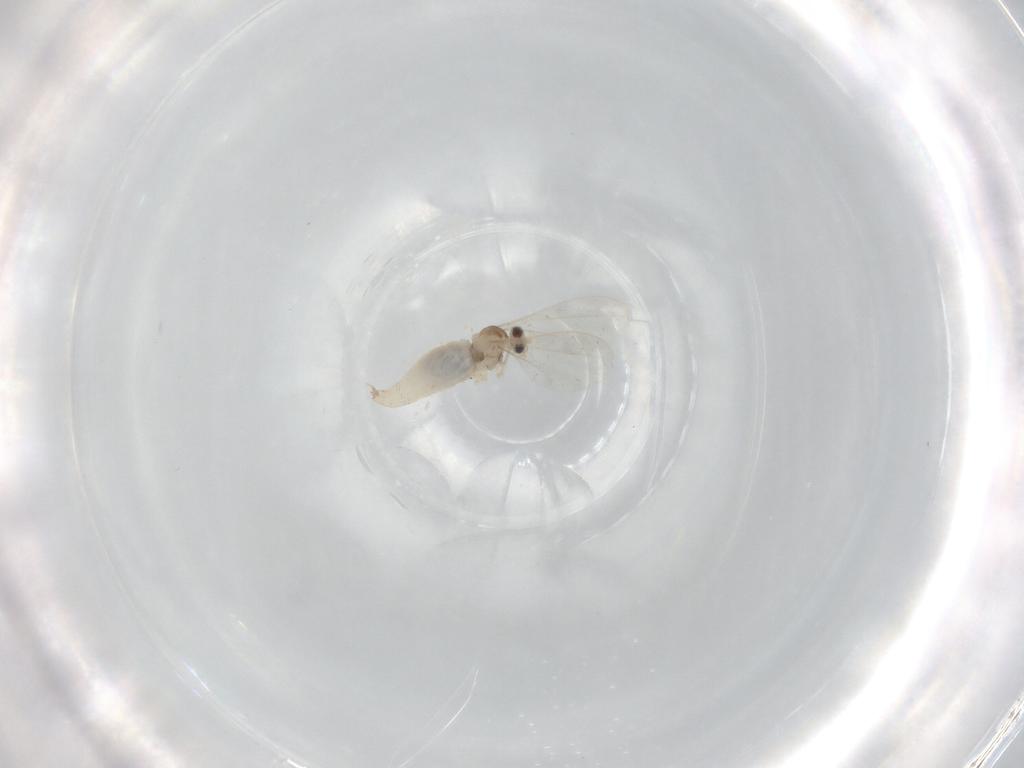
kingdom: Animalia
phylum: Arthropoda
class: Insecta
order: Diptera
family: Cecidomyiidae
